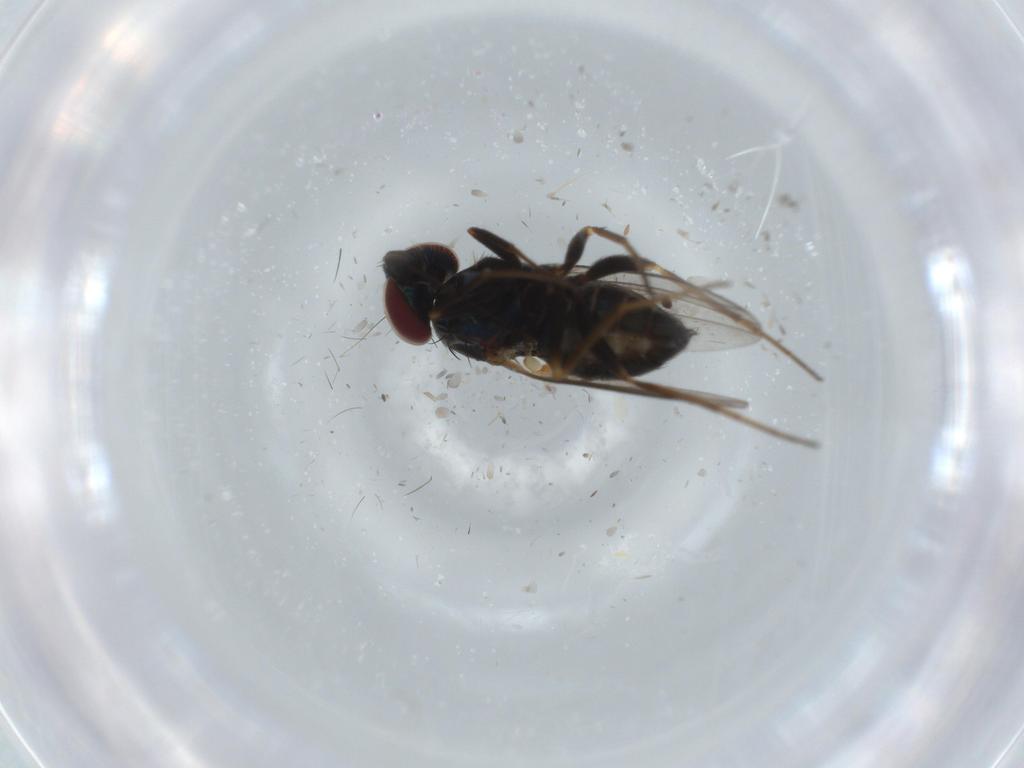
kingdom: Animalia
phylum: Arthropoda
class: Insecta
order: Diptera
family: Dolichopodidae
